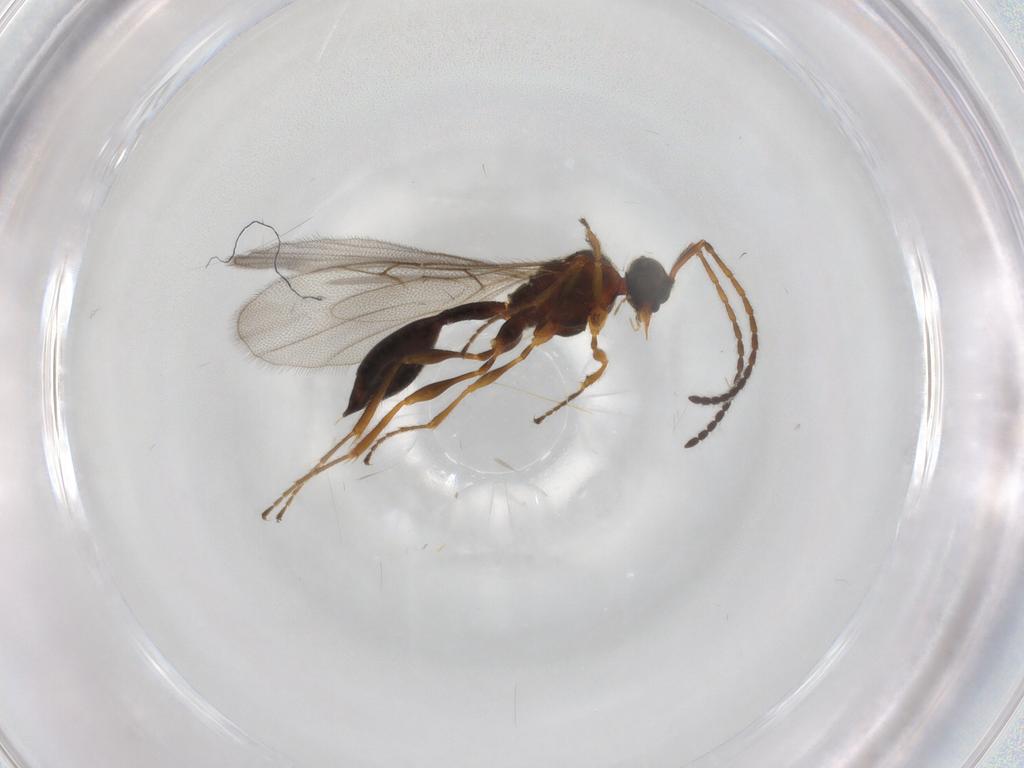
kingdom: Animalia
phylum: Arthropoda
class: Insecta
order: Hymenoptera
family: Diapriidae
